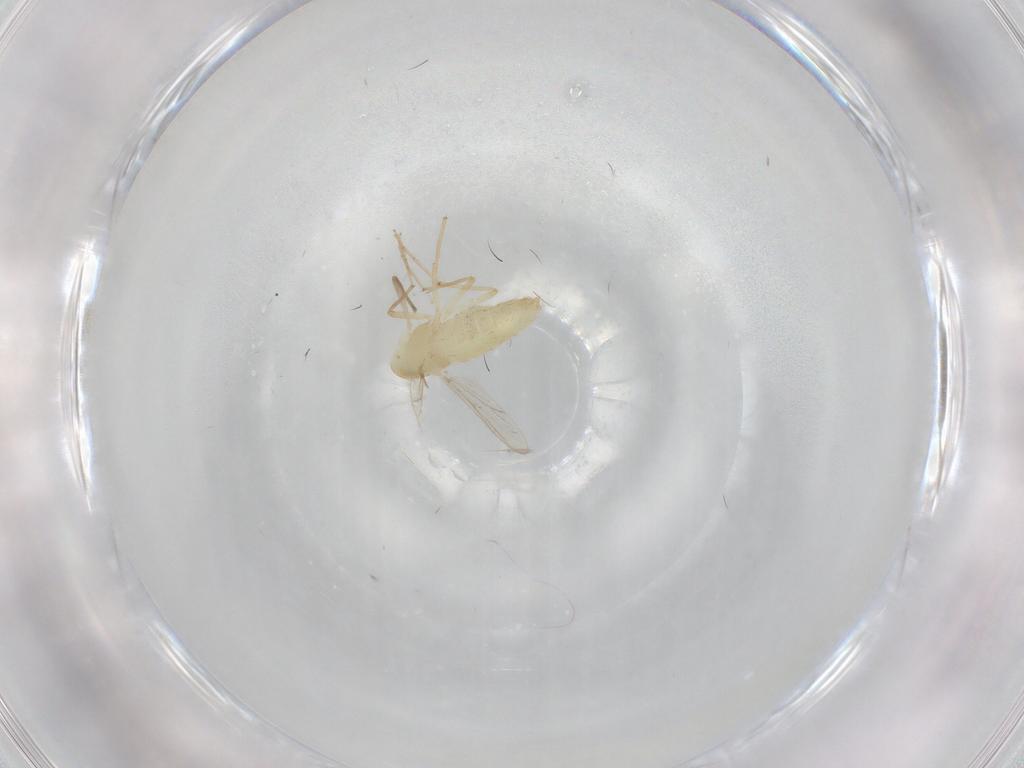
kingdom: Animalia
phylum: Arthropoda
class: Insecta
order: Diptera
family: Chironomidae
